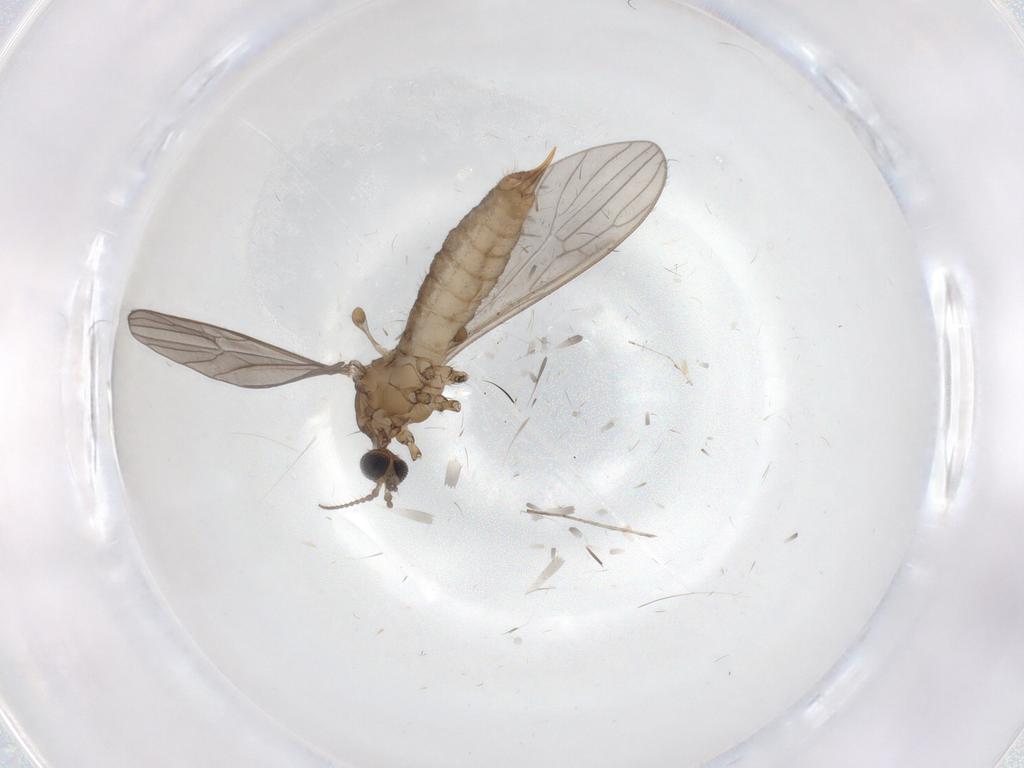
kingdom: Animalia
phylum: Arthropoda
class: Insecta
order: Diptera
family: Limoniidae
